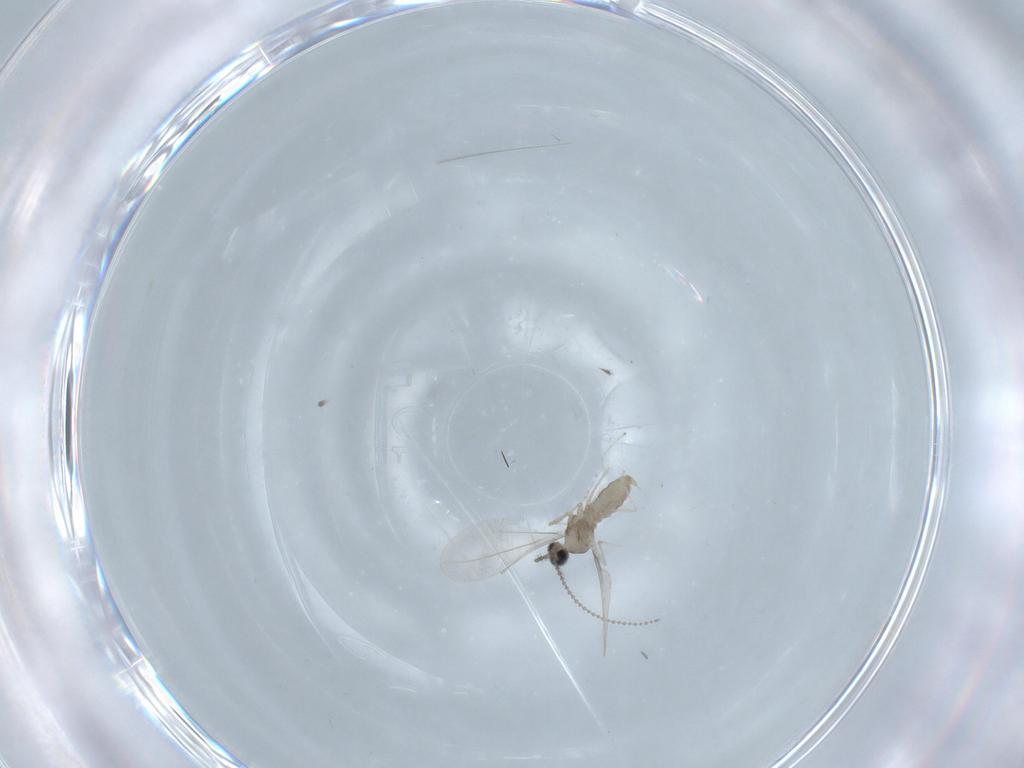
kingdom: Animalia
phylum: Arthropoda
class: Insecta
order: Diptera
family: Cecidomyiidae
